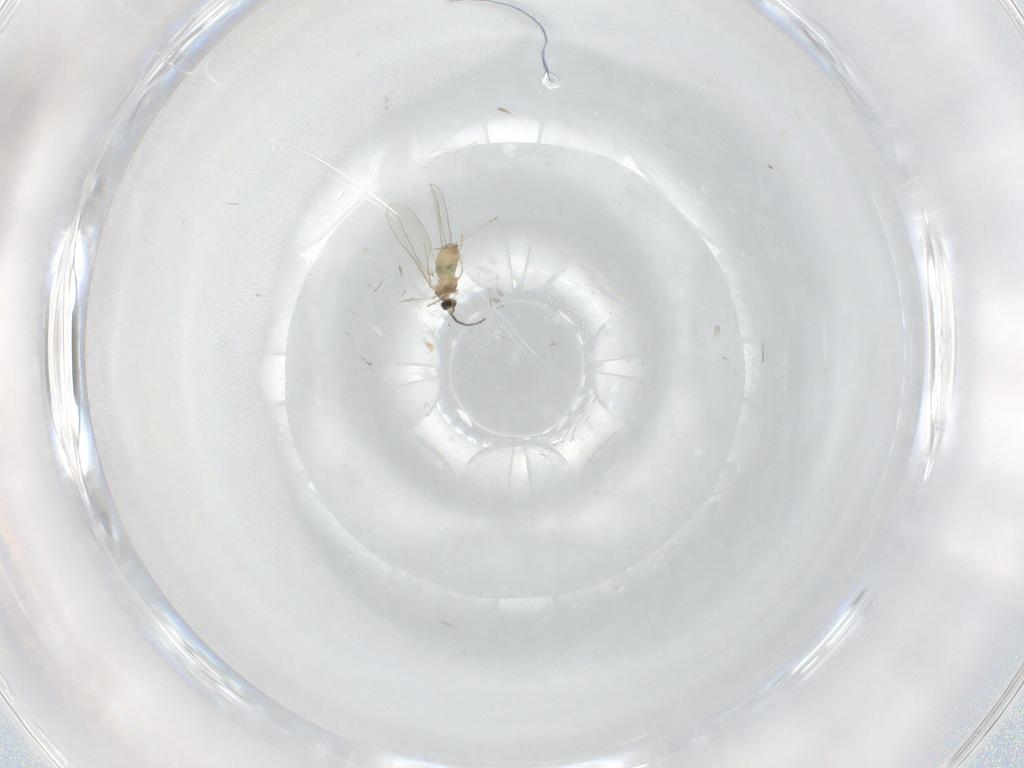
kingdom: Animalia
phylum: Arthropoda
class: Insecta
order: Diptera
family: Cecidomyiidae
